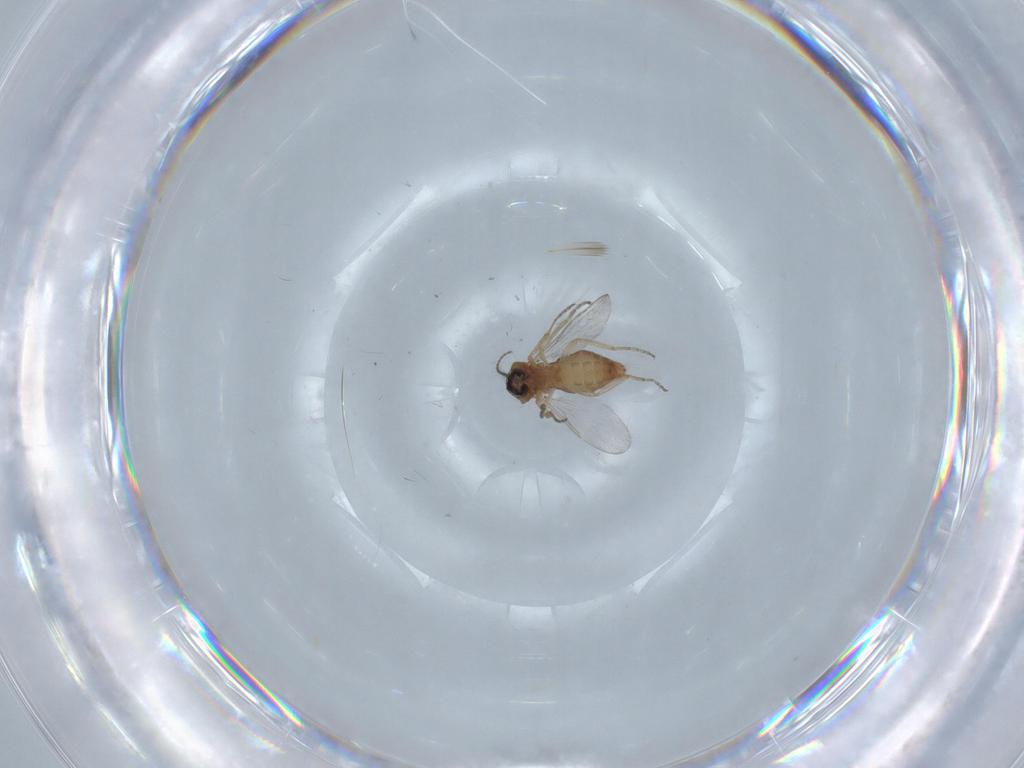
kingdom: Animalia
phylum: Arthropoda
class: Insecta
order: Diptera
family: Ceratopogonidae
